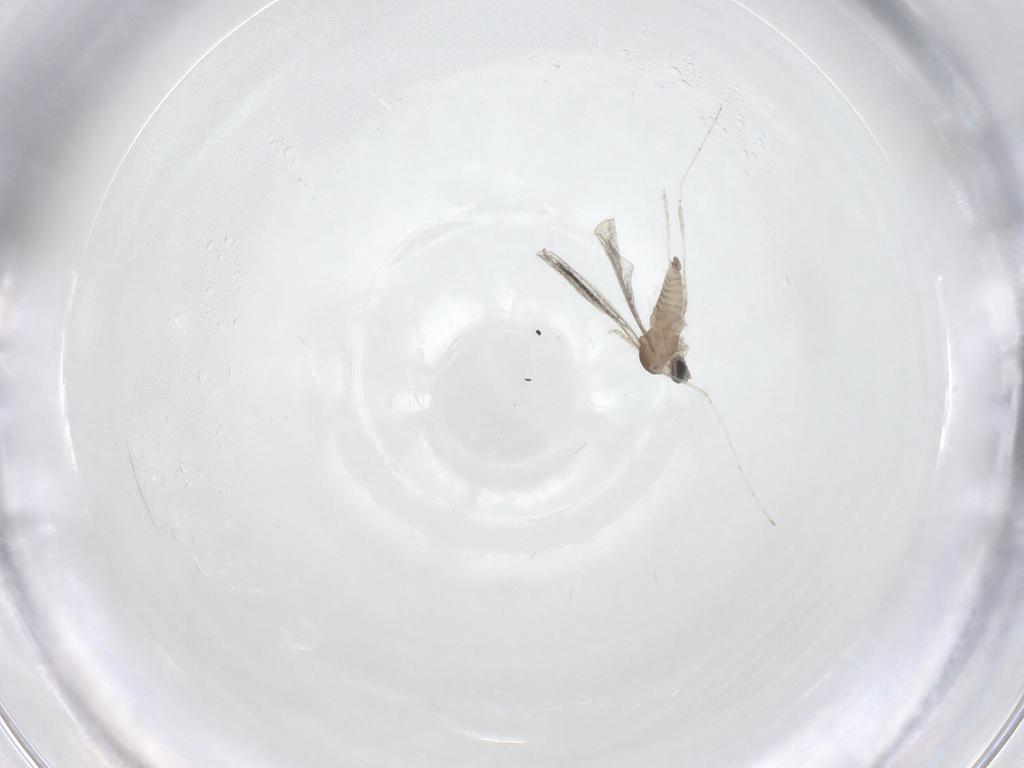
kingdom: Animalia
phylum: Arthropoda
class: Insecta
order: Diptera
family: Cecidomyiidae
